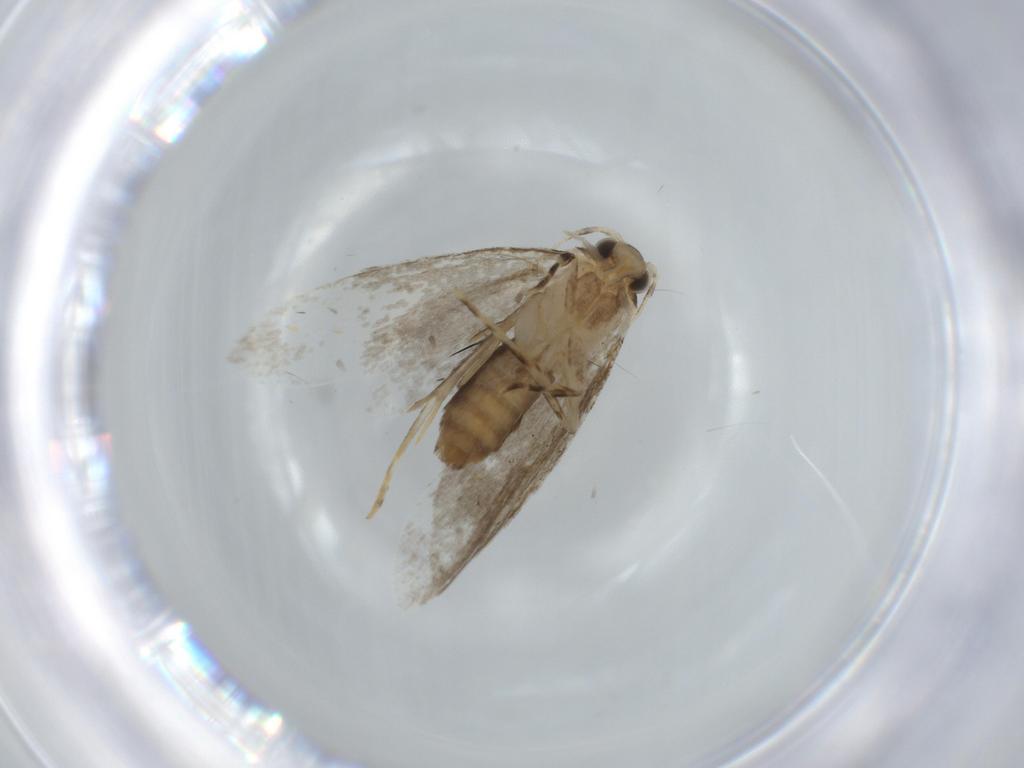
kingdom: Animalia
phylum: Arthropoda
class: Insecta
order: Lepidoptera
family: Tineidae
